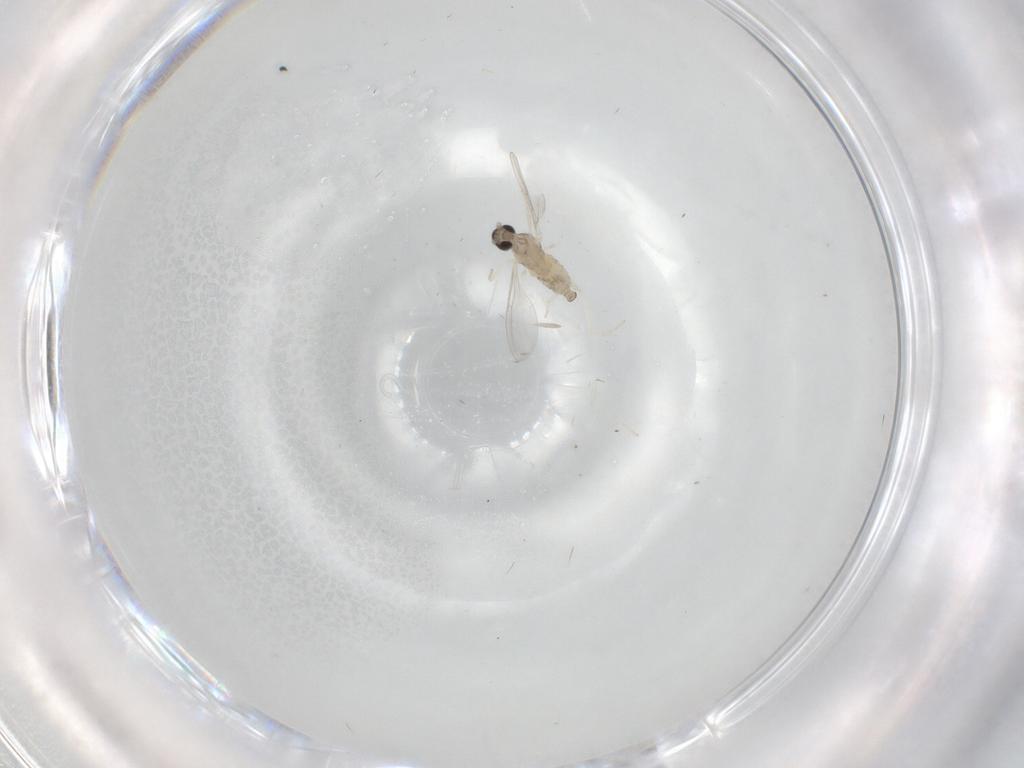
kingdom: Animalia
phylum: Arthropoda
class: Insecta
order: Diptera
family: Cecidomyiidae
